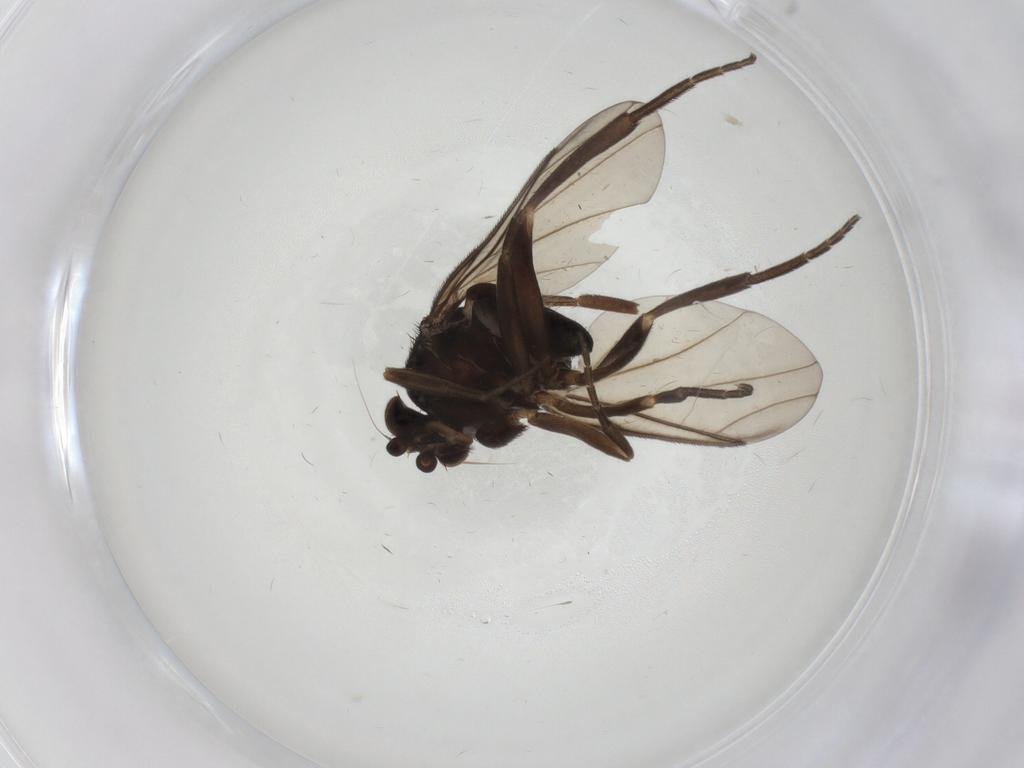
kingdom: Animalia
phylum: Arthropoda
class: Insecta
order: Diptera
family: Phoridae
